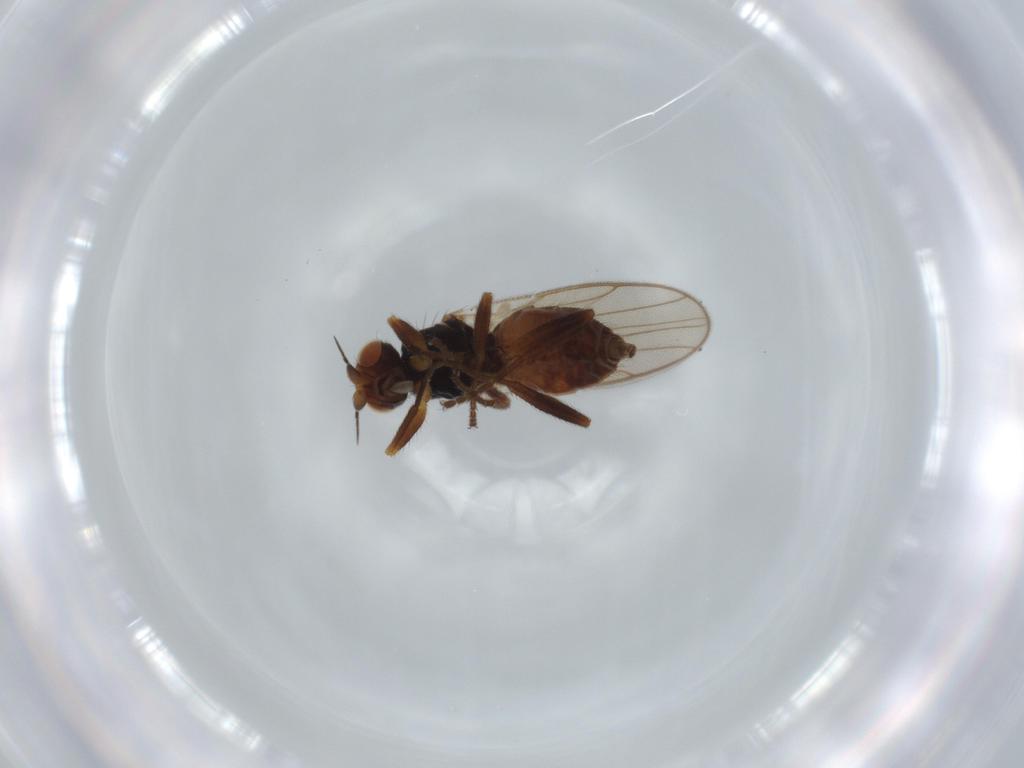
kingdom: Animalia
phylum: Arthropoda
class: Insecta
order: Diptera
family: Chloropidae
